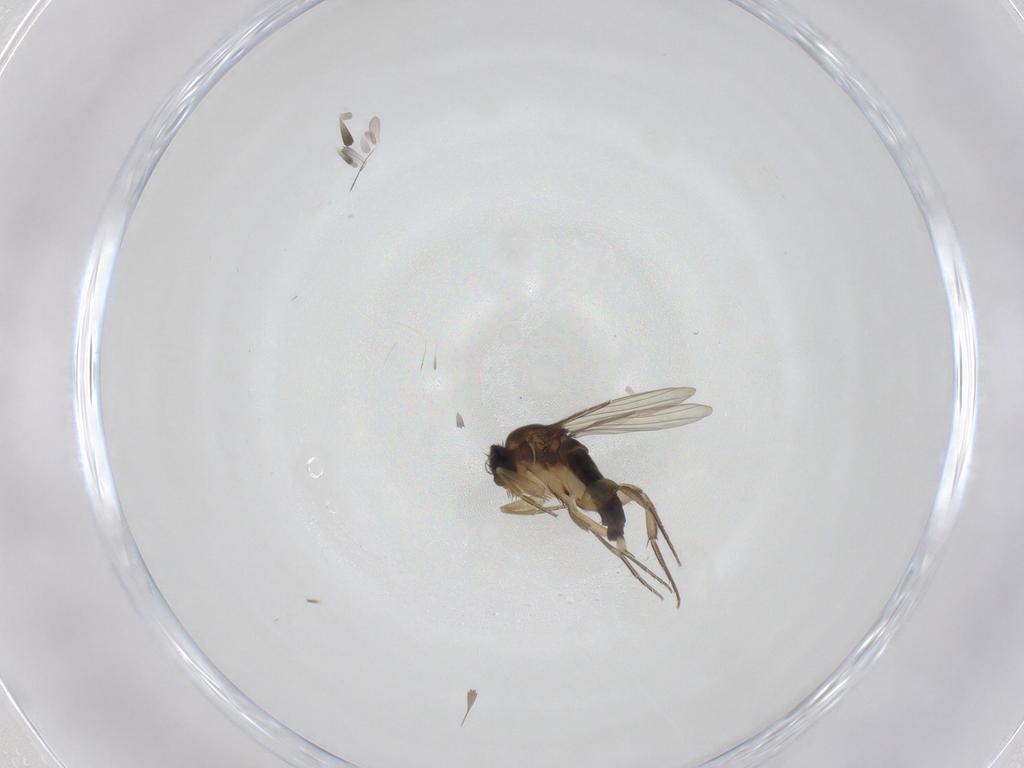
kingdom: Animalia
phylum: Arthropoda
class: Insecta
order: Diptera
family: Phoridae
